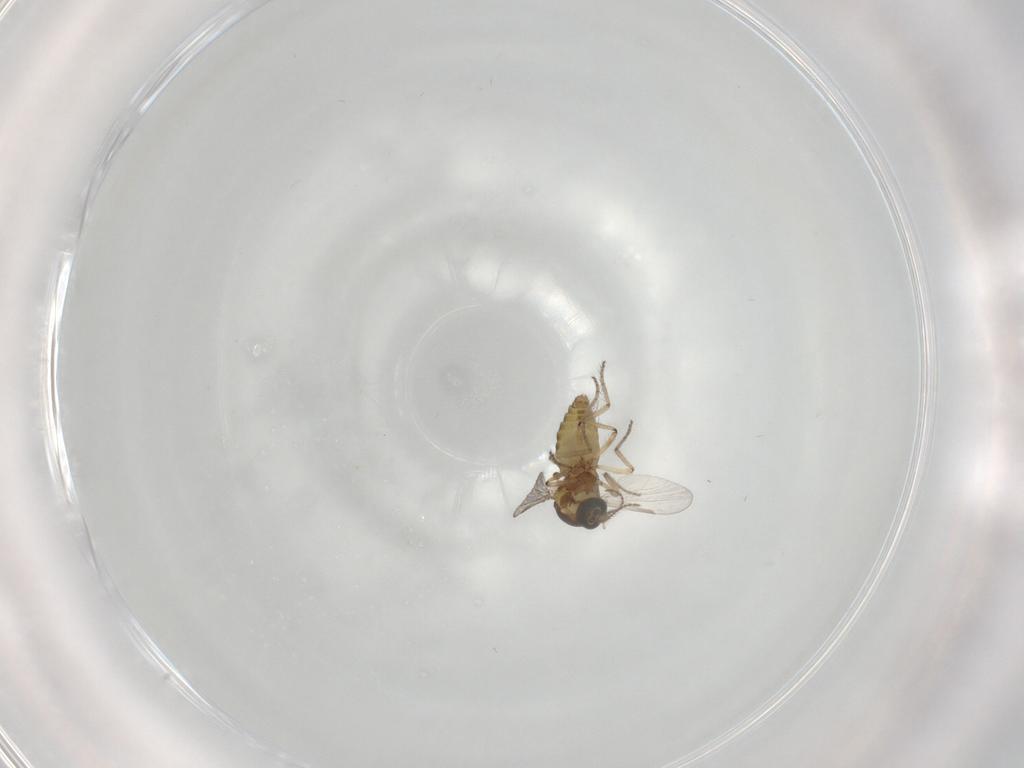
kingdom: Animalia
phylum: Arthropoda
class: Insecta
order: Diptera
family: Ceratopogonidae
